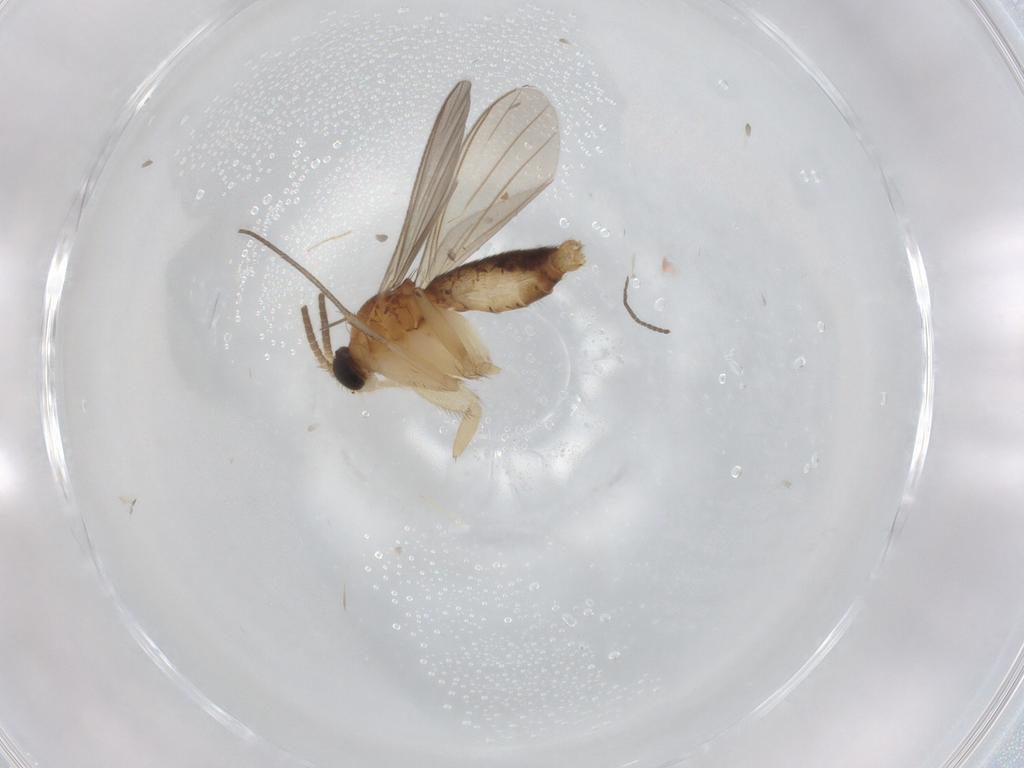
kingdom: Animalia
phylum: Arthropoda
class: Insecta
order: Diptera
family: Mycetophilidae
